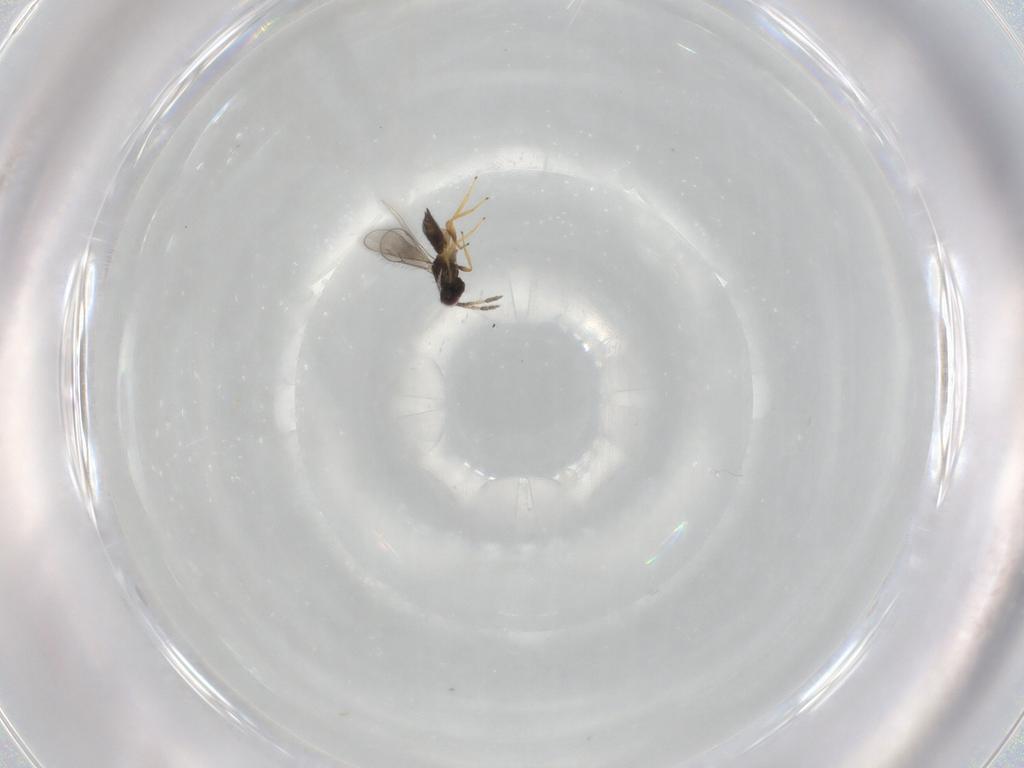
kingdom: Animalia
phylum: Arthropoda
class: Insecta
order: Hymenoptera
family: Eulophidae
